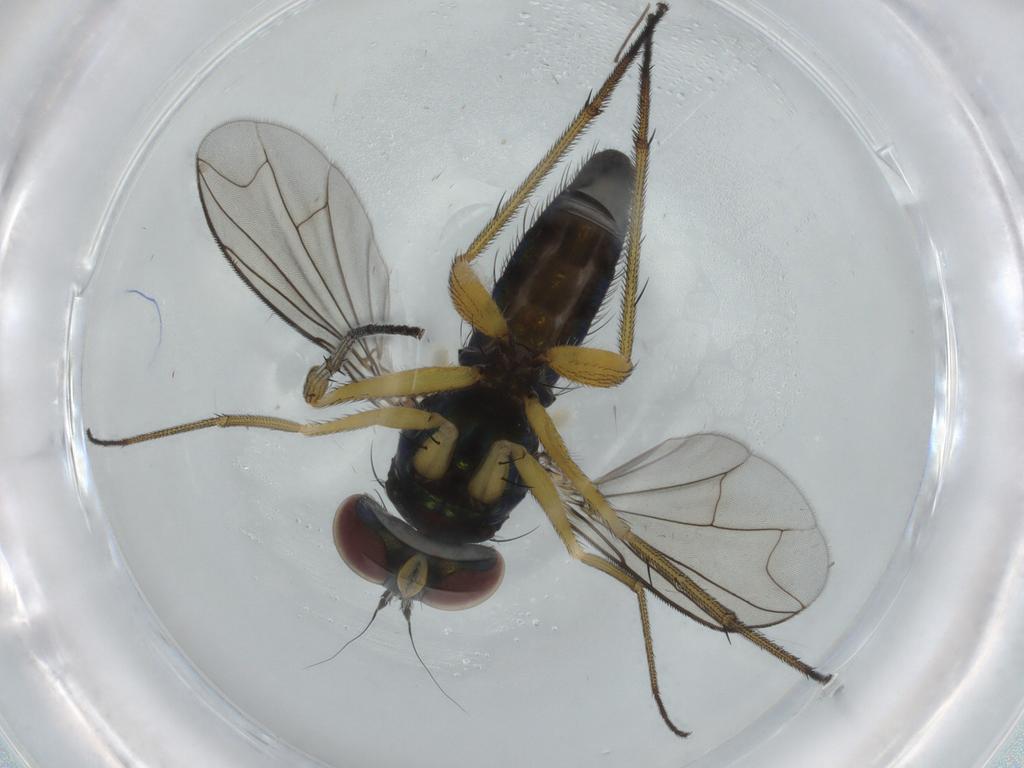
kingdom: Animalia
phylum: Arthropoda
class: Insecta
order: Diptera
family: Dolichopodidae
